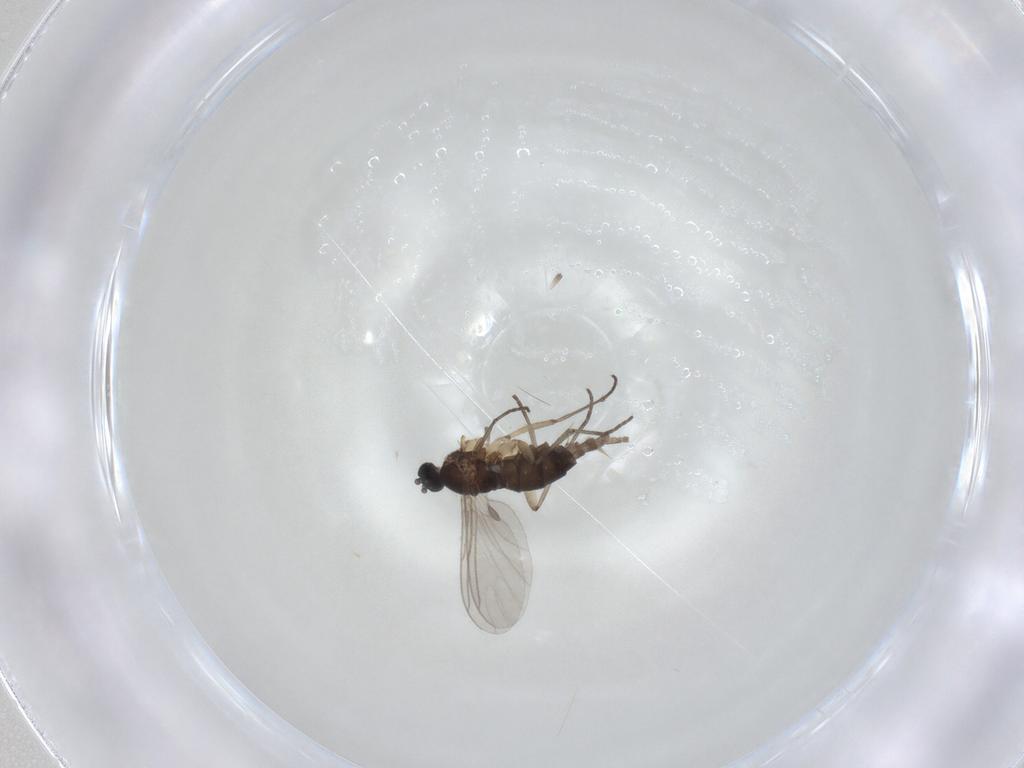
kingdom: Animalia
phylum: Arthropoda
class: Insecta
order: Diptera
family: Sciaridae
